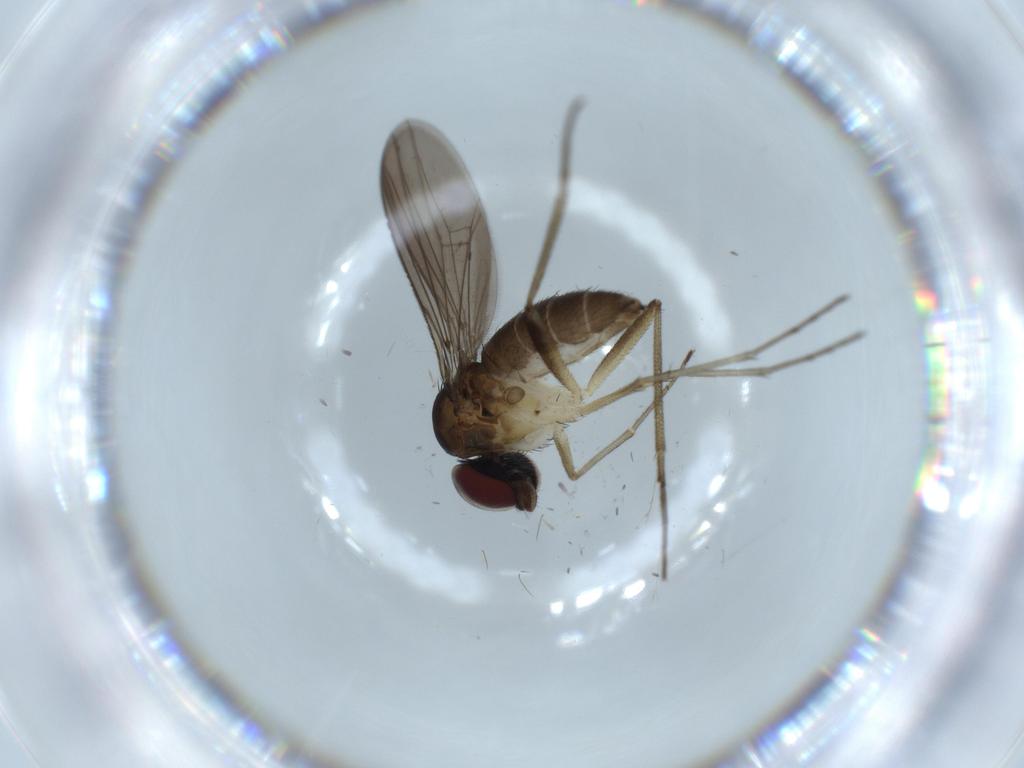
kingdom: Animalia
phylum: Arthropoda
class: Insecta
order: Diptera
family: Dolichopodidae
